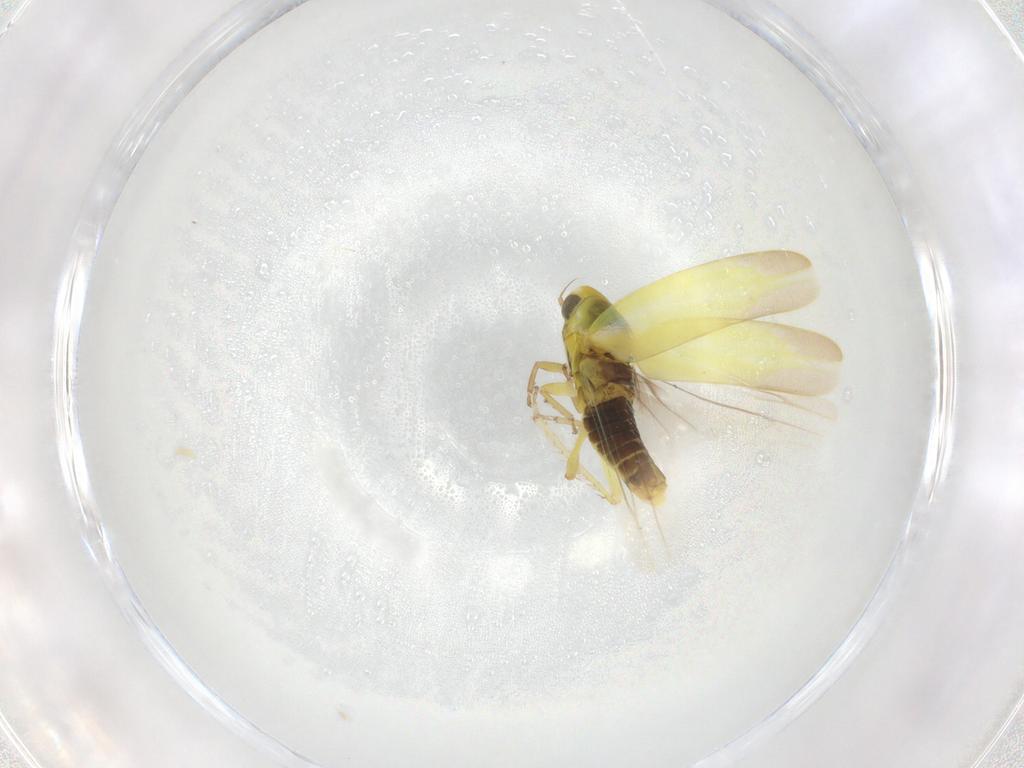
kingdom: Animalia
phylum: Arthropoda
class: Insecta
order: Hemiptera
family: Cicadellidae
